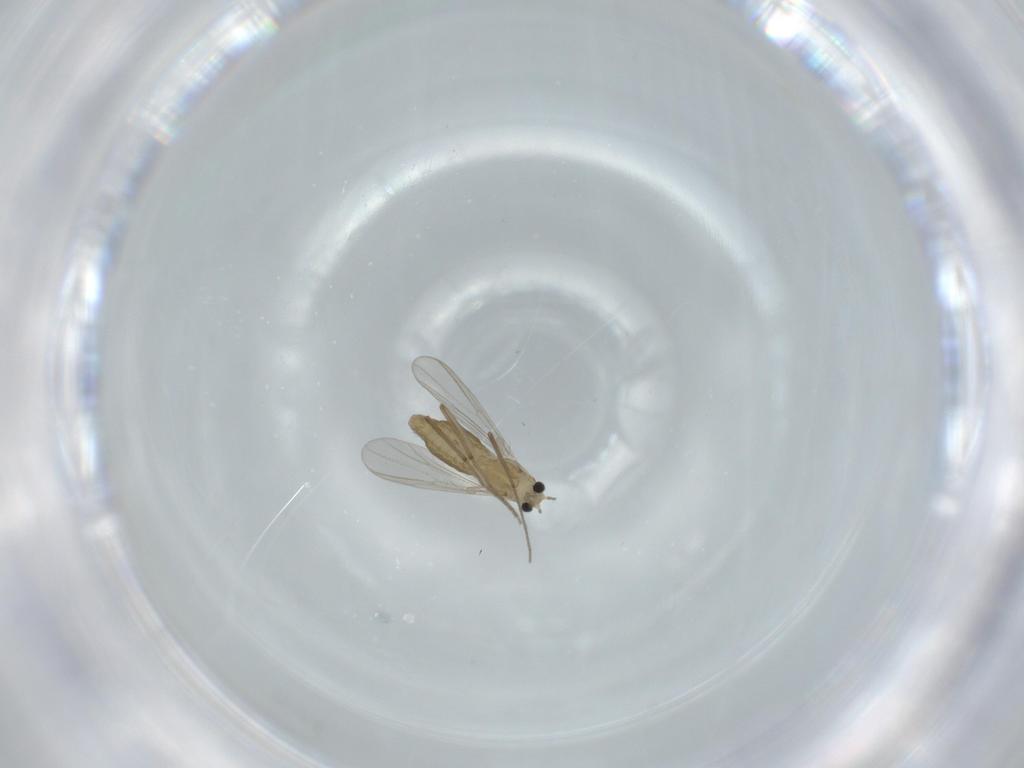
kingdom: Animalia
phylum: Arthropoda
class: Insecta
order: Diptera
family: Chironomidae
